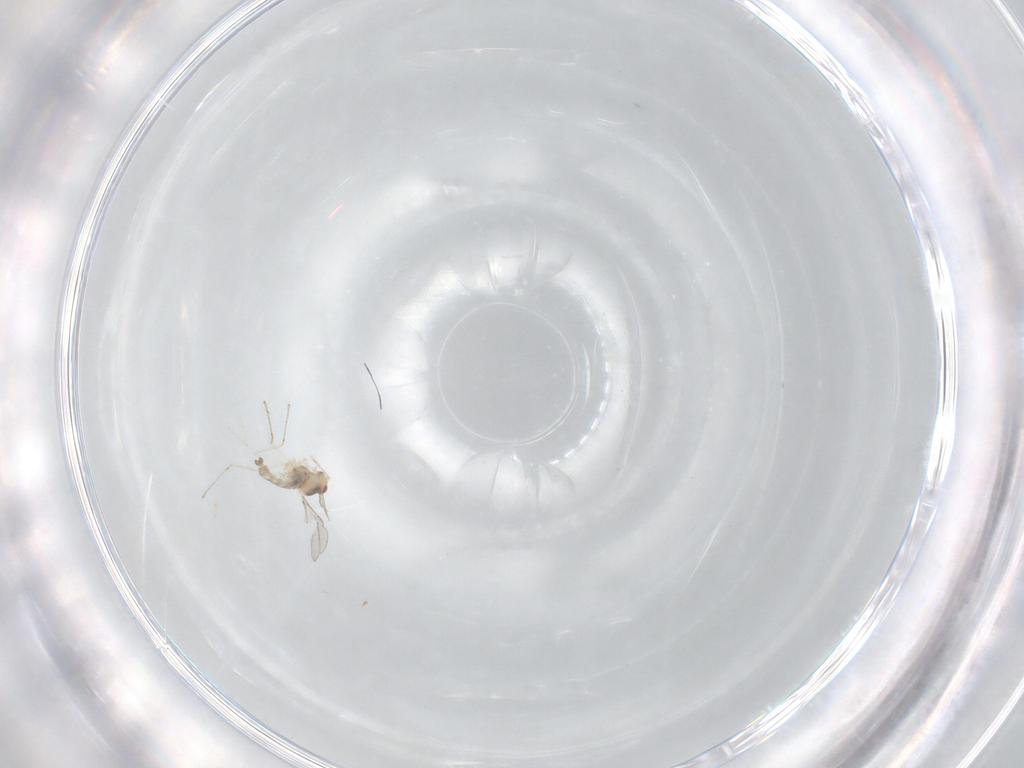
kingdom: Animalia
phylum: Arthropoda
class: Insecta
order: Diptera
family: Cecidomyiidae
